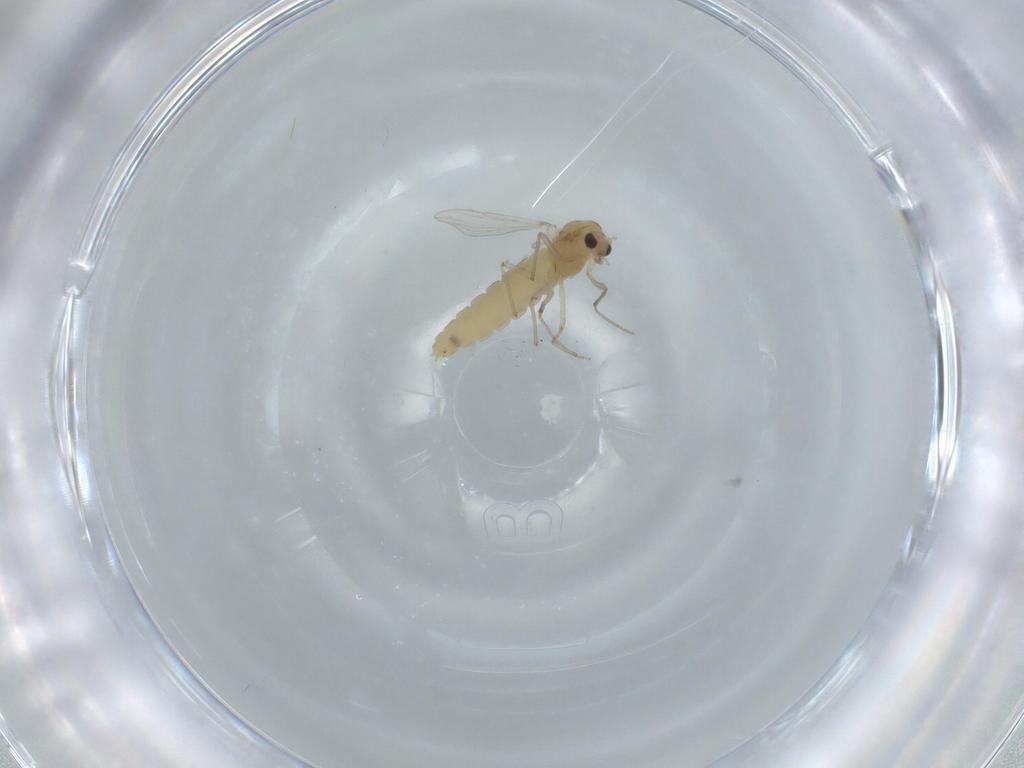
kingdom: Animalia
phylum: Arthropoda
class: Insecta
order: Diptera
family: Chironomidae
